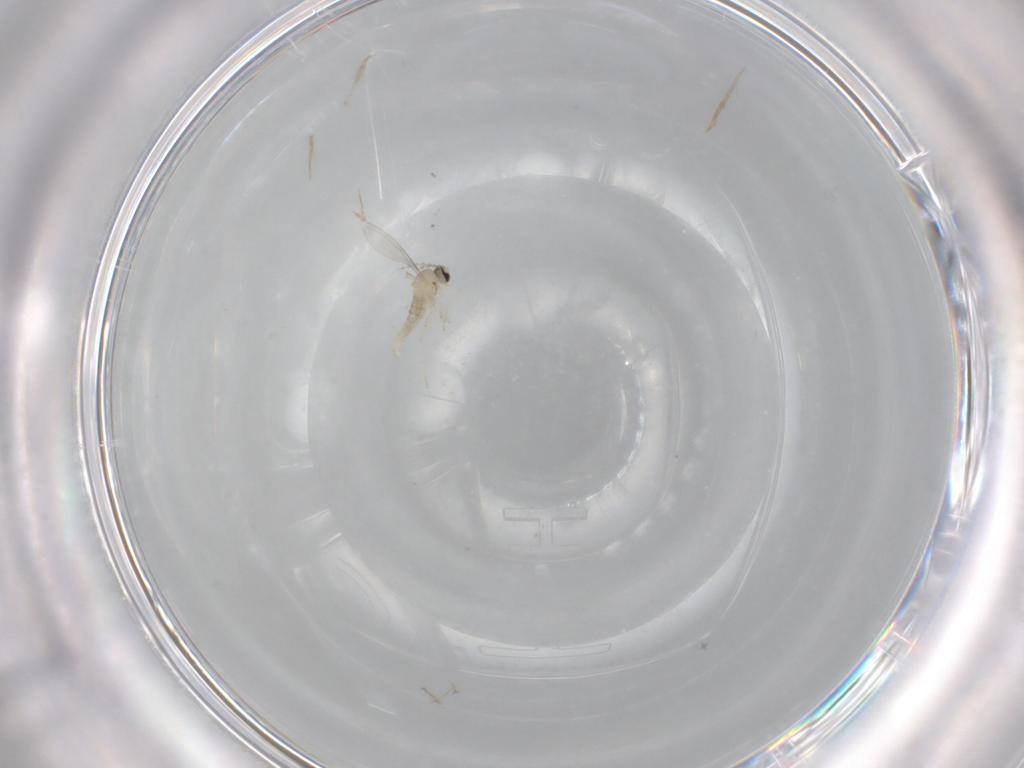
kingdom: Animalia
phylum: Arthropoda
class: Insecta
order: Diptera
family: Cecidomyiidae
